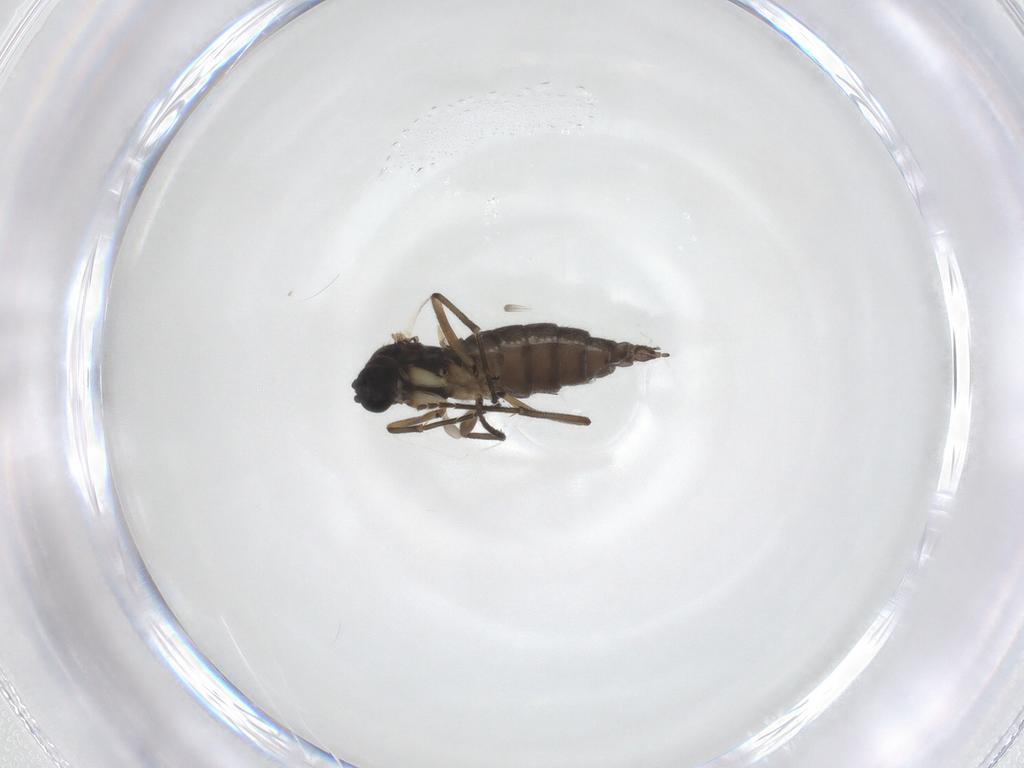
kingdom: Animalia
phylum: Arthropoda
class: Insecta
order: Diptera
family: Sciaridae
